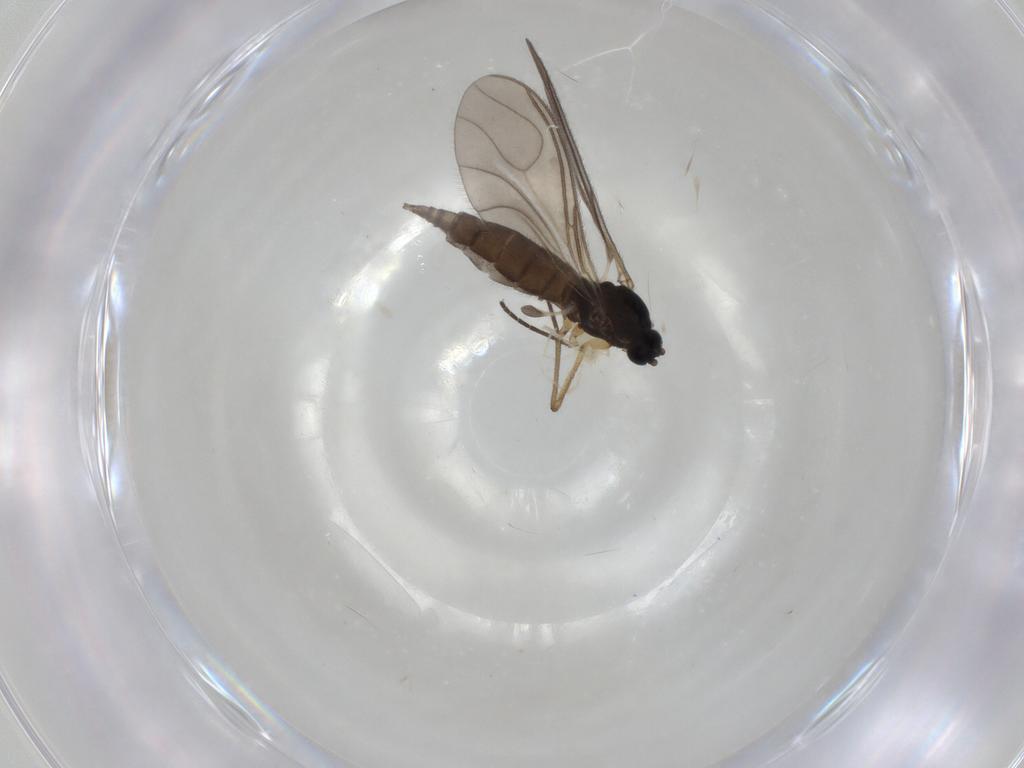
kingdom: Animalia
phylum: Arthropoda
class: Insecta
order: Diptera
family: Sciaridae
